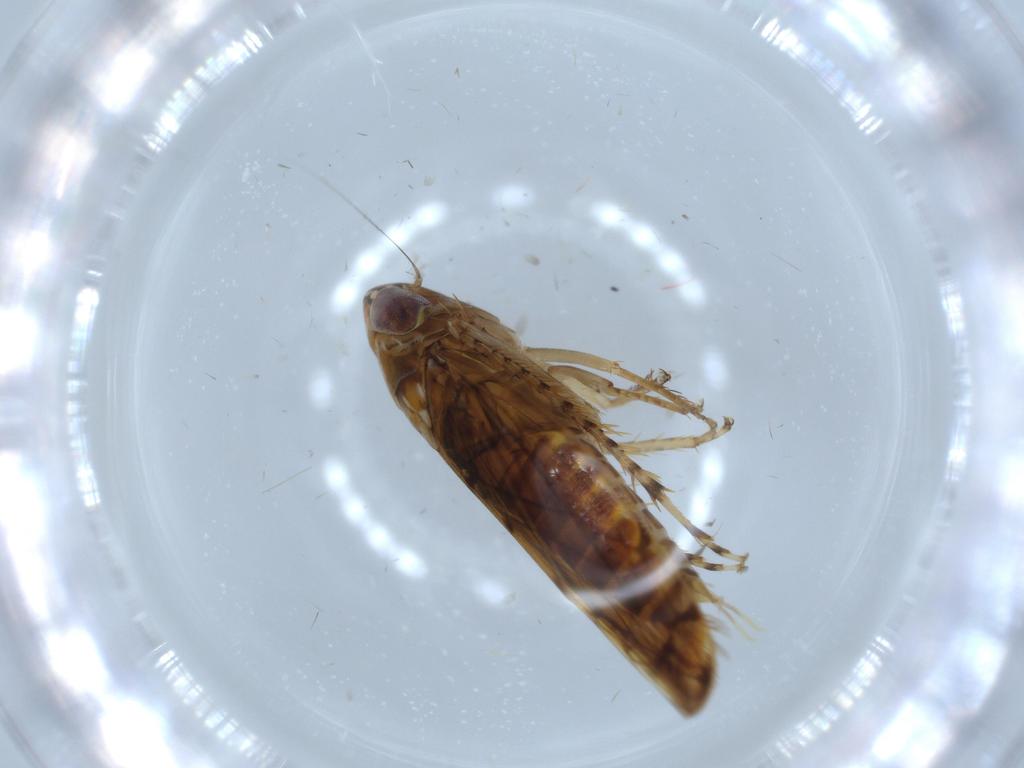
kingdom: Animalia
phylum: Arthropoda
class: Insecta
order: Hemiptera
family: Cicadellidae
